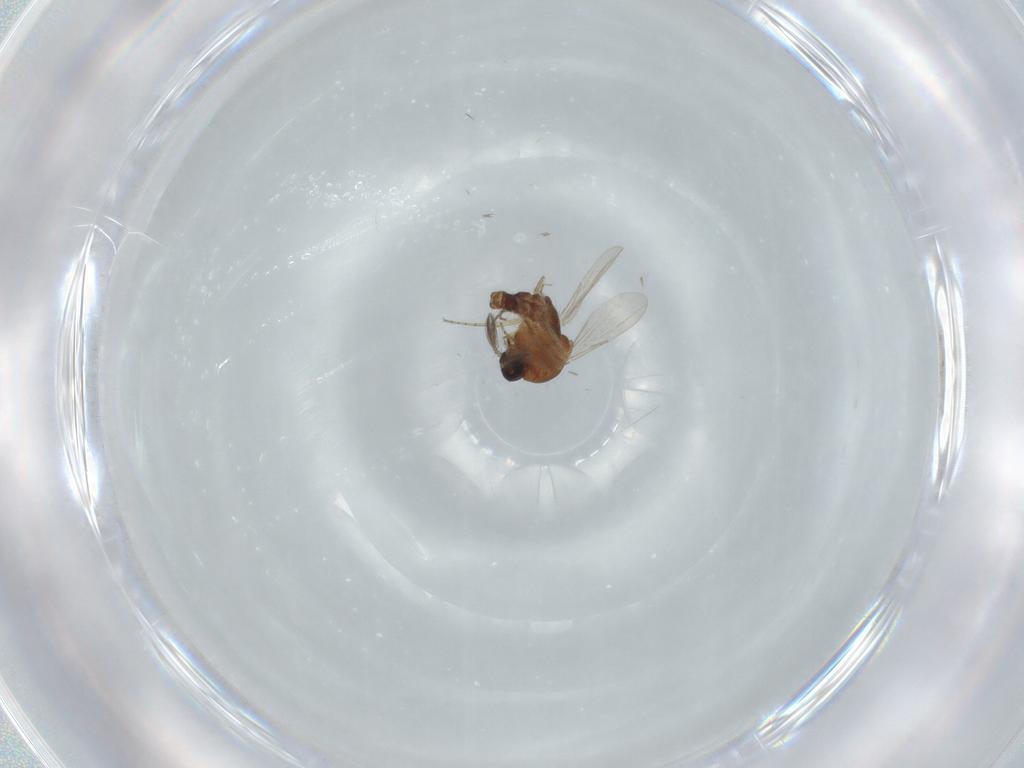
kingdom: Animalia
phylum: Arthropoda
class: Insecta
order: Diptera
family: Ceratopogonidae
